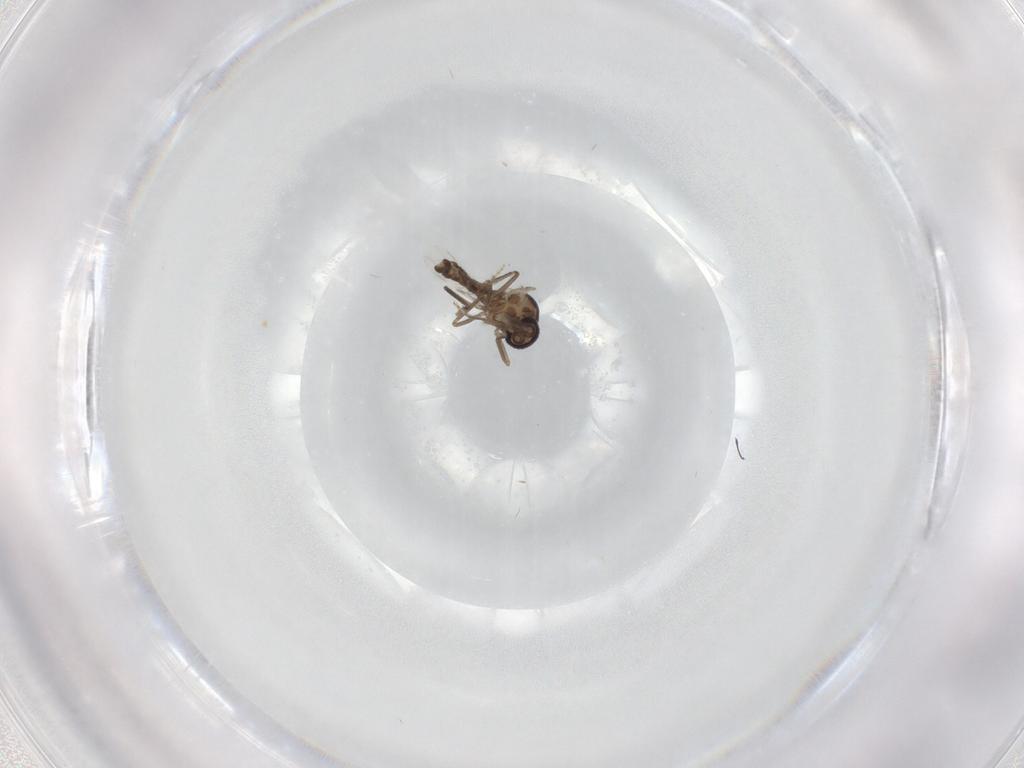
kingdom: Animalia
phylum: Arthropoda
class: Insecta
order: Diptera
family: Ceratopogonidae
